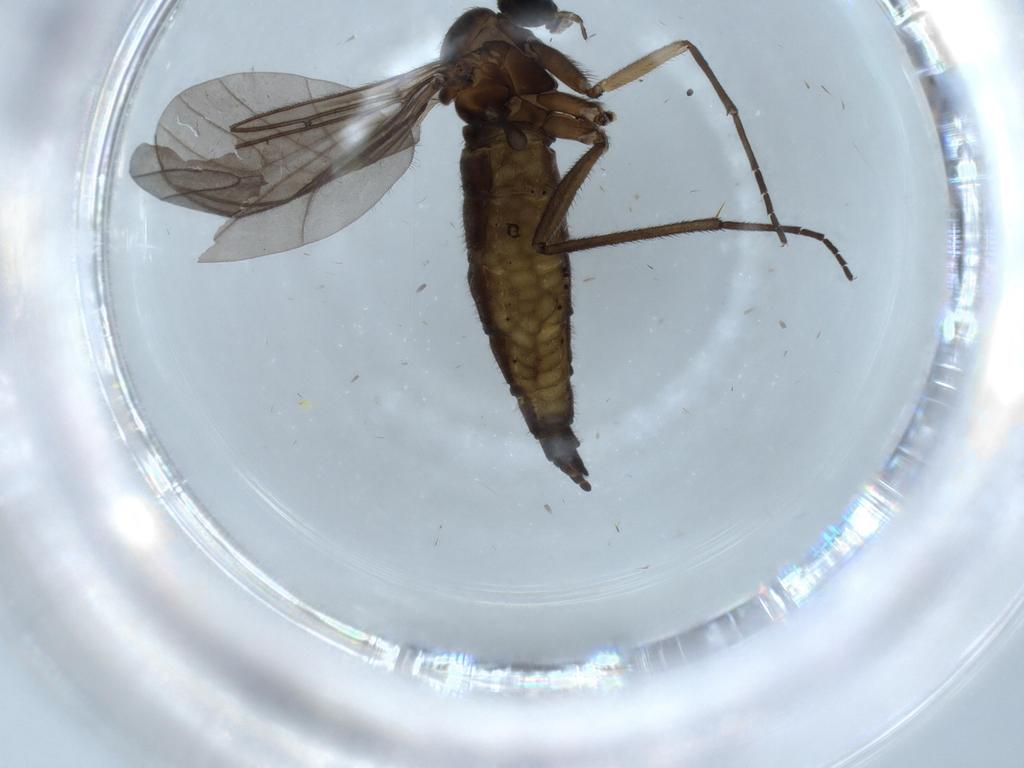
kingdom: Animalia
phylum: Arthropoda
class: Insecta
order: Diptera
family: Sciaridae
